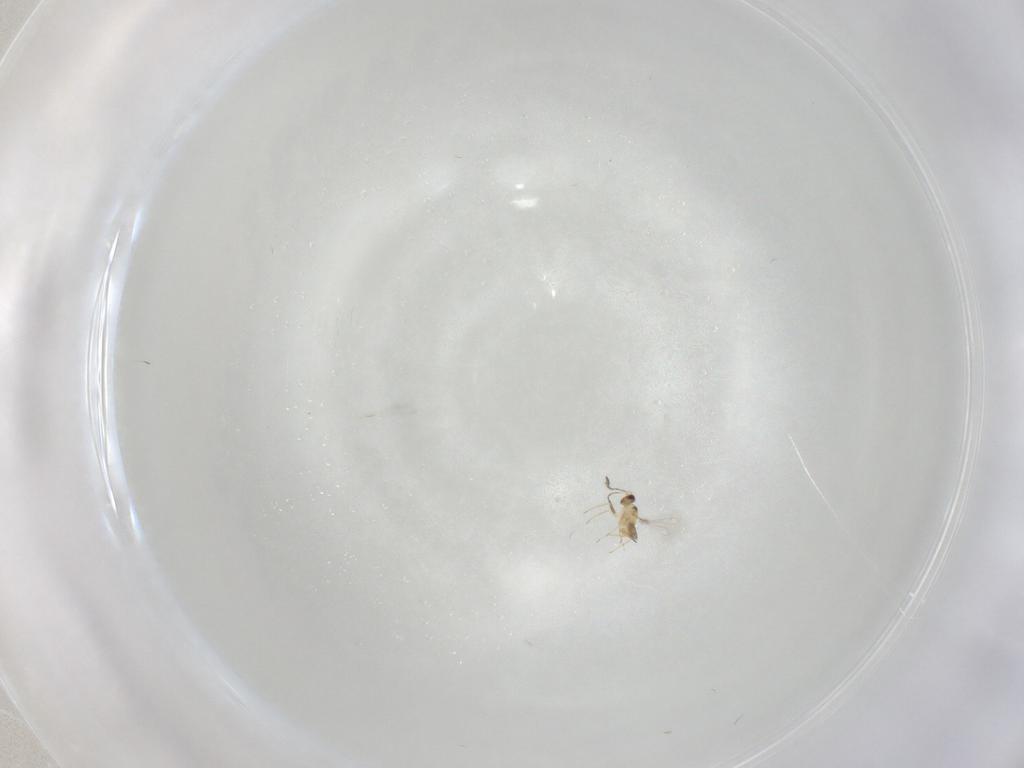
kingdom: Animalia
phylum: Arthropoda
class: Insecta
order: Hymenoptera
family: Mymaridae
